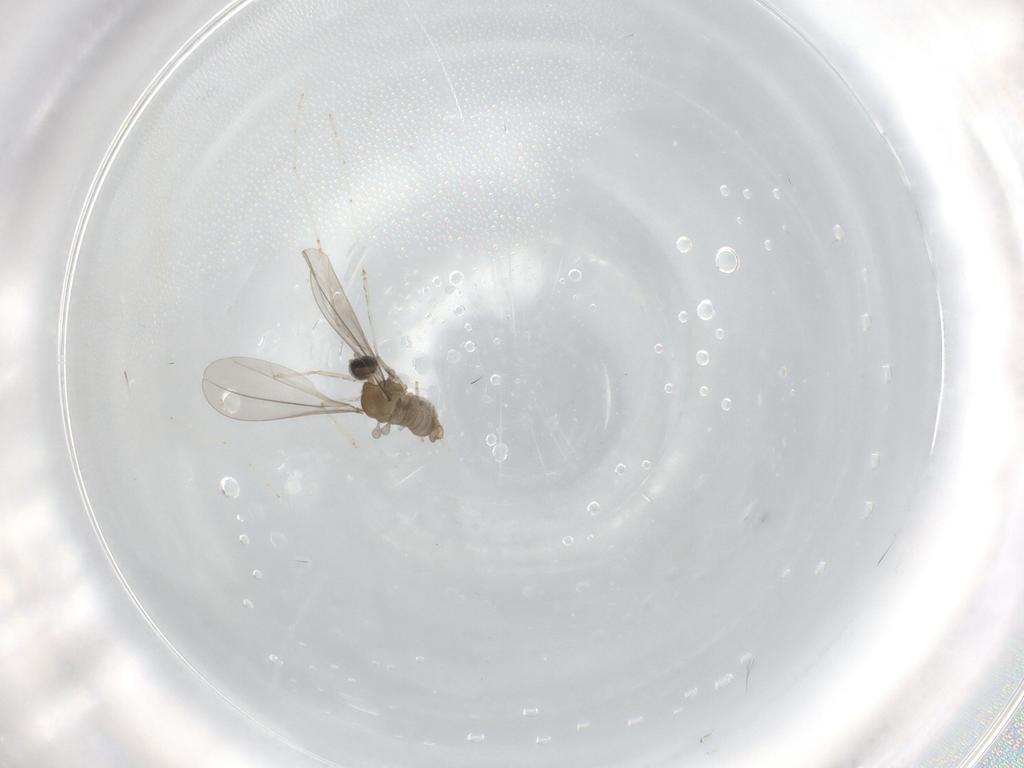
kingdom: Animalia
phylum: Arthropoda
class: Insecta
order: Diptera
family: Cecidomyiidae
